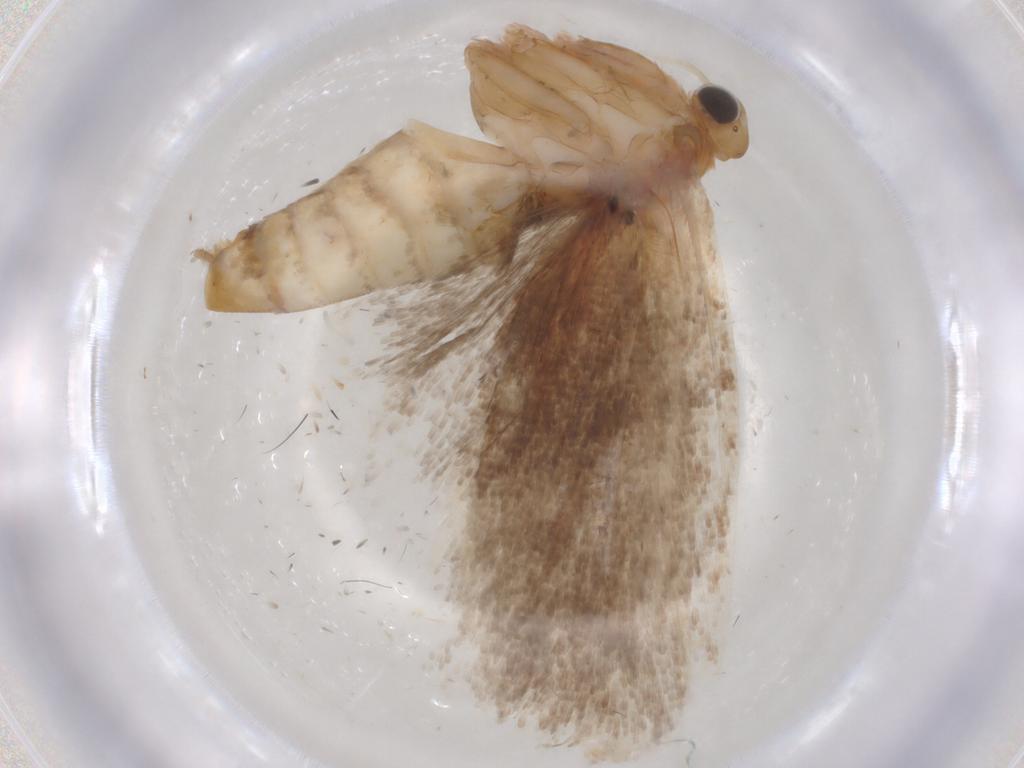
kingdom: Animalia
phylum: Arthropoda
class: Insecta
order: Lepidoptera
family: Tortricidae
